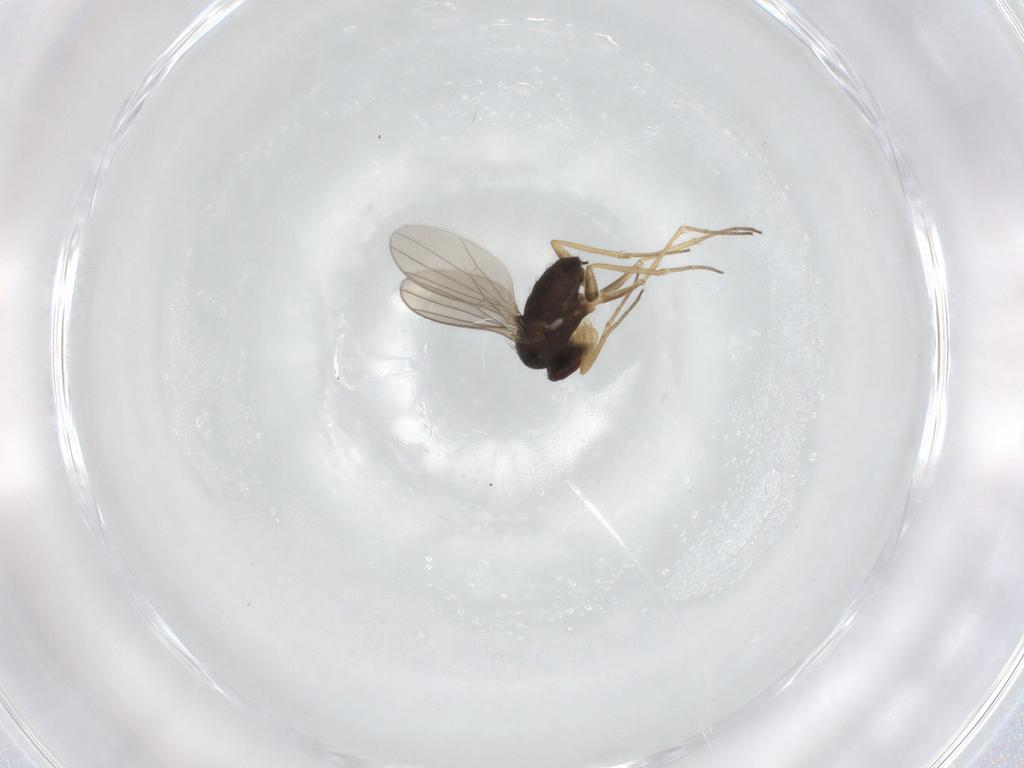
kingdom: Animalia
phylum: Arthropoda
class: Insecta
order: Diptera
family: Dolichopodidae
